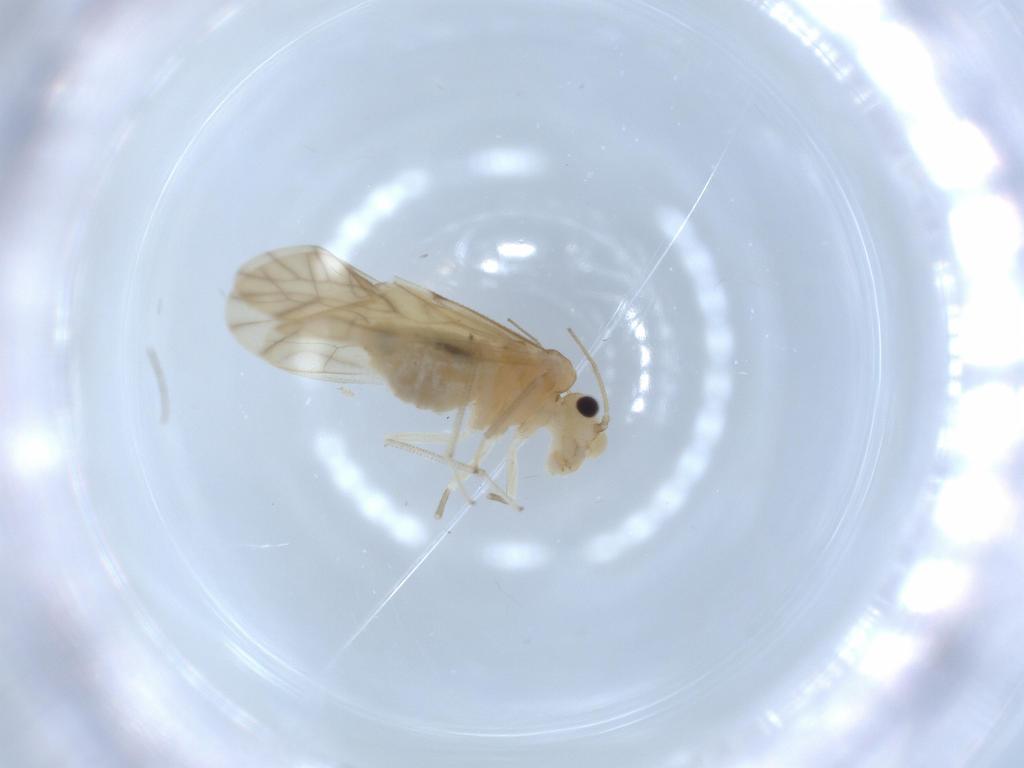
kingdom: Animalia
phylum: Arthropoda
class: Insecta
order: Psocodea
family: Caeciliusidae
